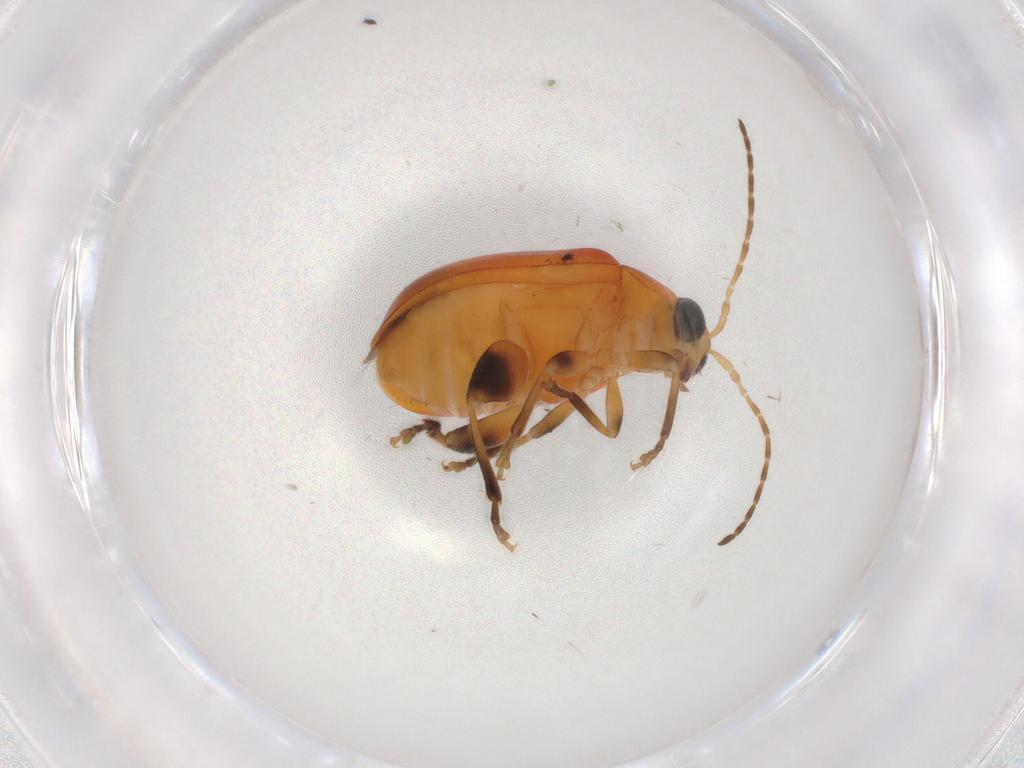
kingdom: Animalia
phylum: Arthropoda
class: Insecta
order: Coleoptera
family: Chrysomelidae
